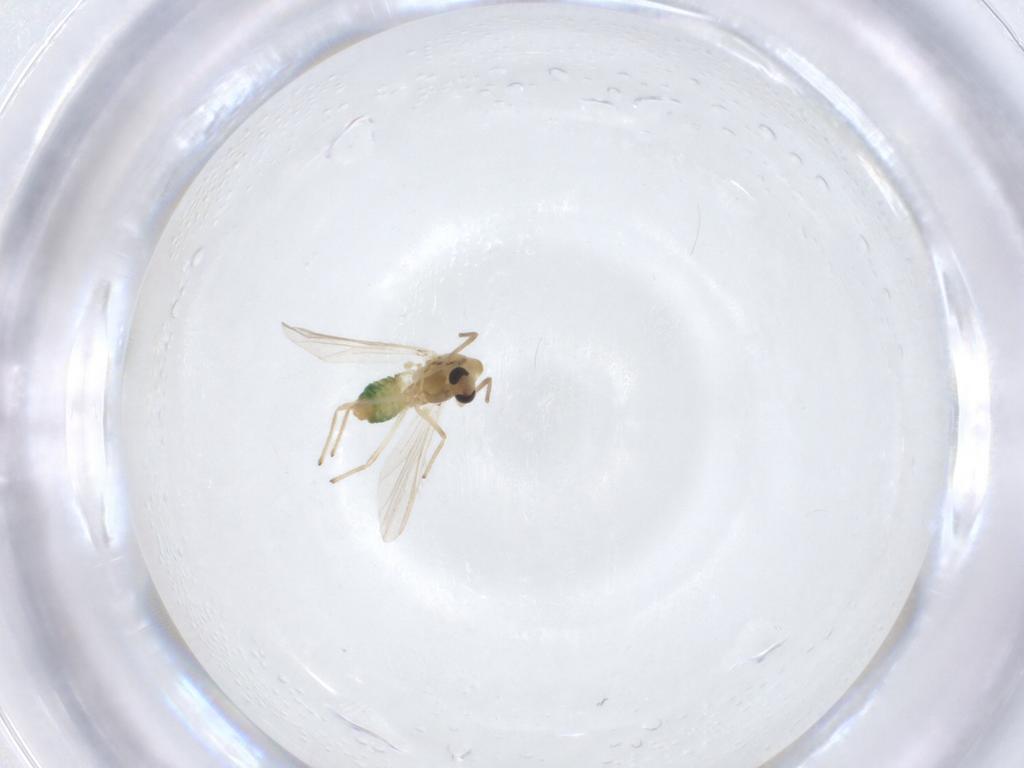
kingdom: Animalia
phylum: Arthropoda
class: Insecta
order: Diptera
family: Chironomidae
